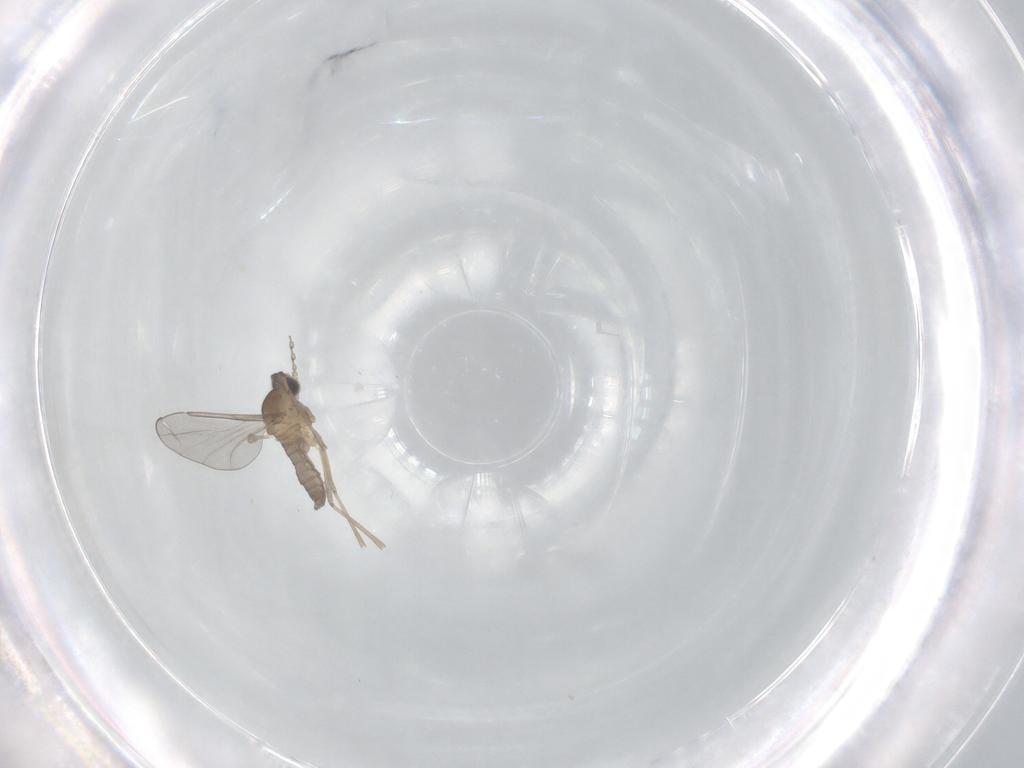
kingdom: Animalia
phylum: Arthropoda
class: Insecta
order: Diptera
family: Cecidomyiidae
